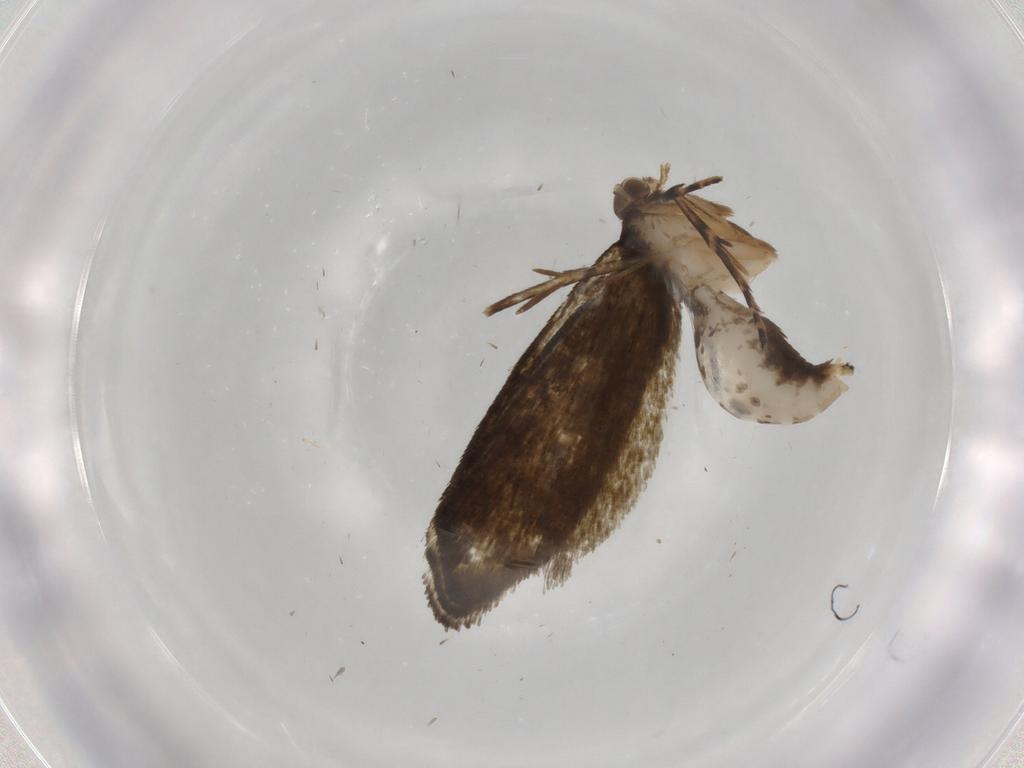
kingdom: Animalia
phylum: Arthropoda
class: Insecta
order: Lepidoptera
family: Crambidae
